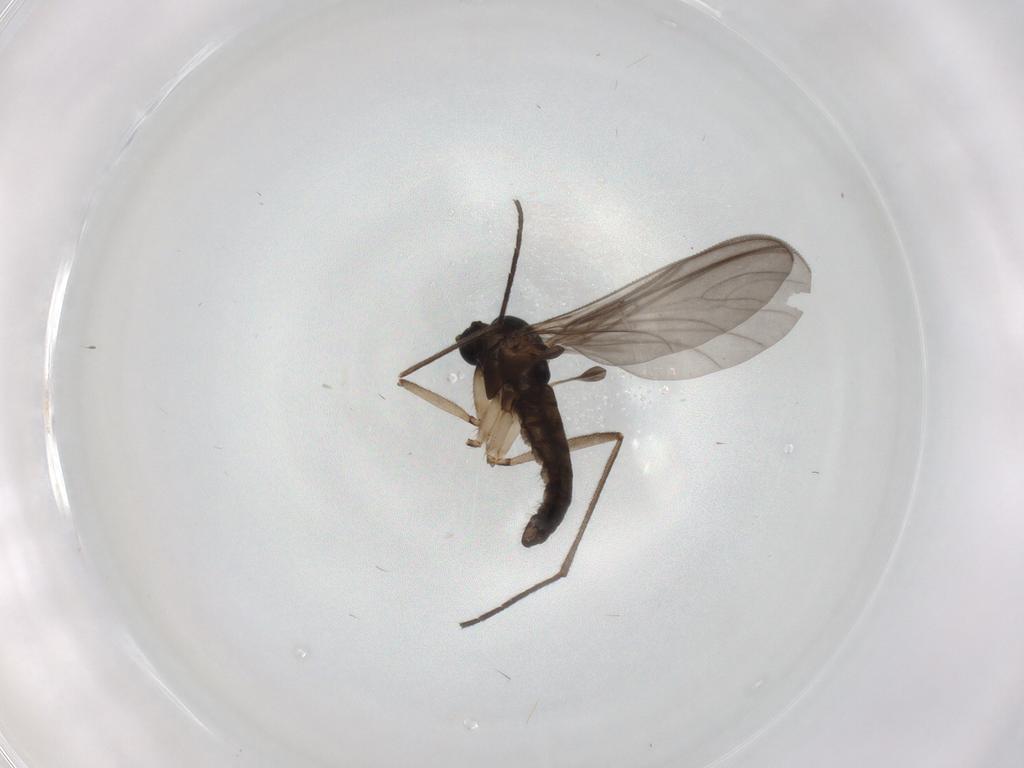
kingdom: Animalia
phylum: Arthropoda
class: Insecta
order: Diptera
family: Sciaridae
